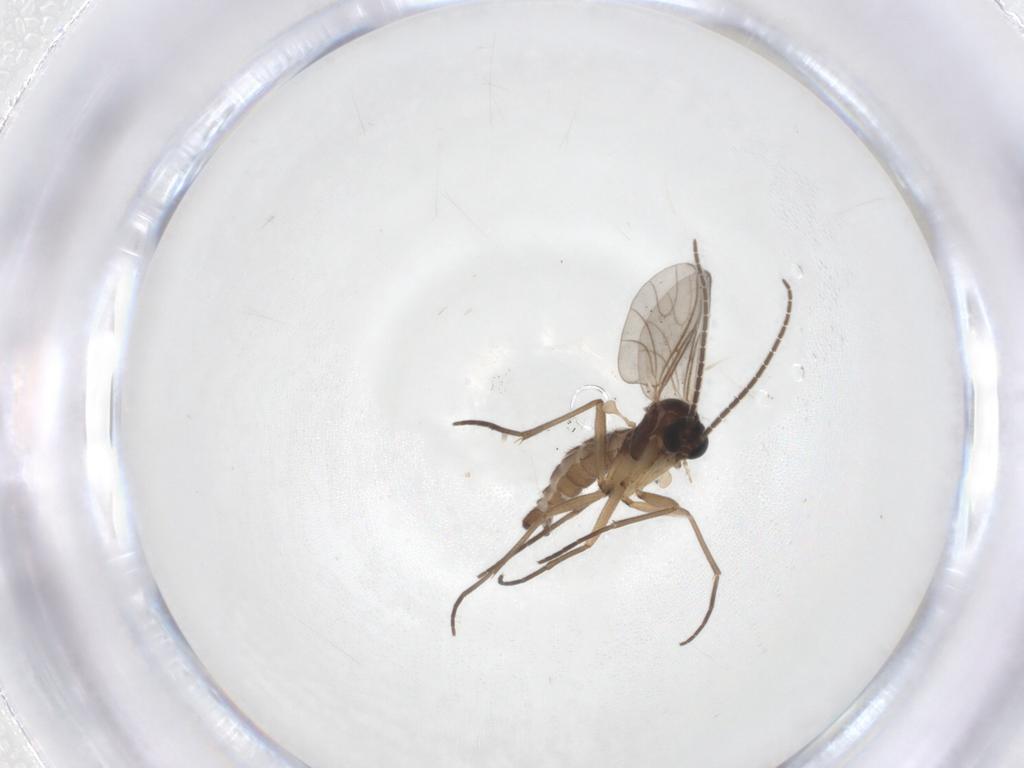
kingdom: Animalia
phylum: Arthropoda
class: Insecta
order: Diptera
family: Sciaridae
